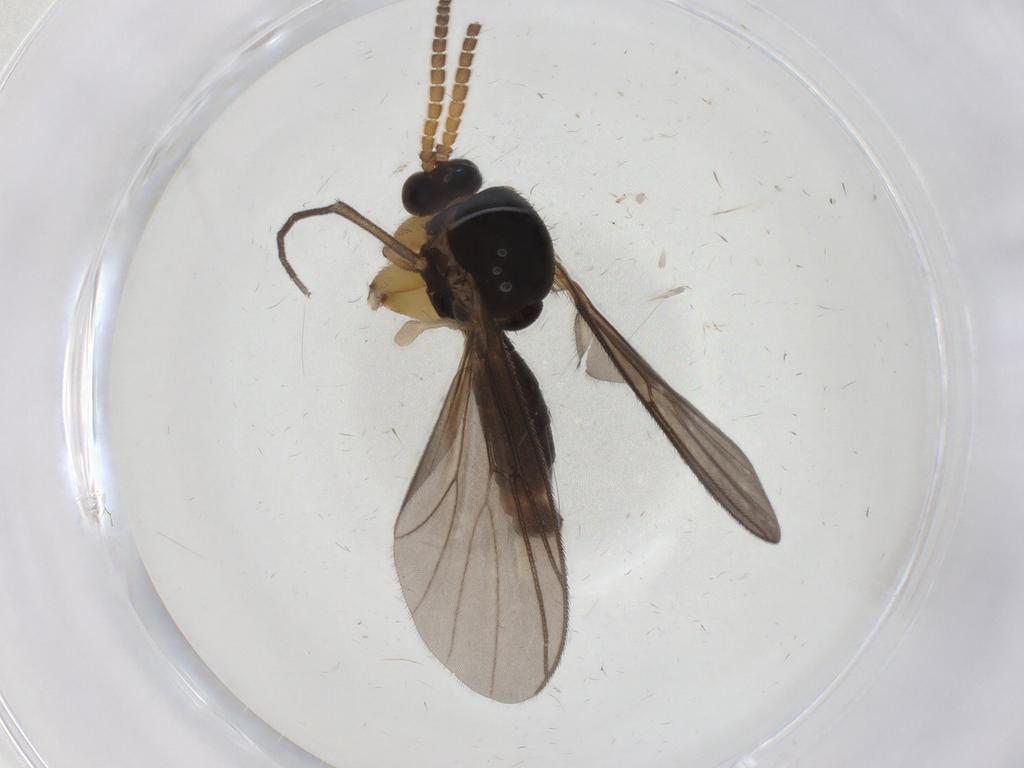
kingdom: Animalia
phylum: Arthropoda
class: Insecta
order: Diptera
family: Mycetophilidae
